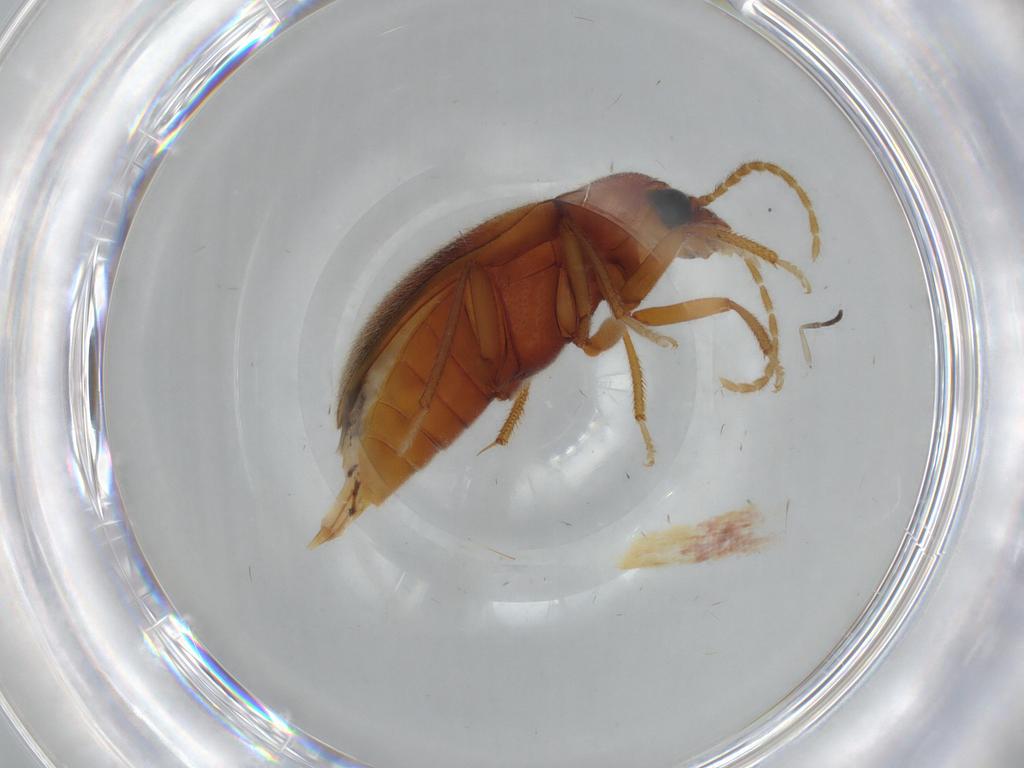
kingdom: Animalia
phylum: Arthropoda
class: Insecta
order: Coleoptera
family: Ptilodactylidae
